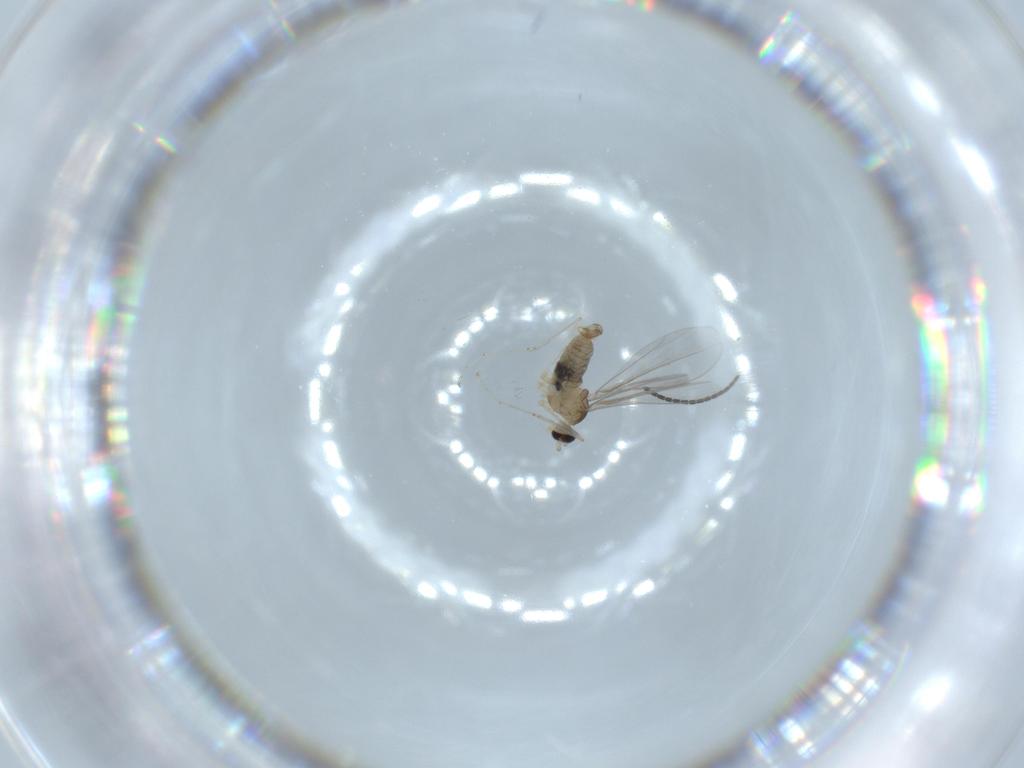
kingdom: Animalia
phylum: Arthropoda
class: Insecta
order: Diptera
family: Cecidomyiidae
